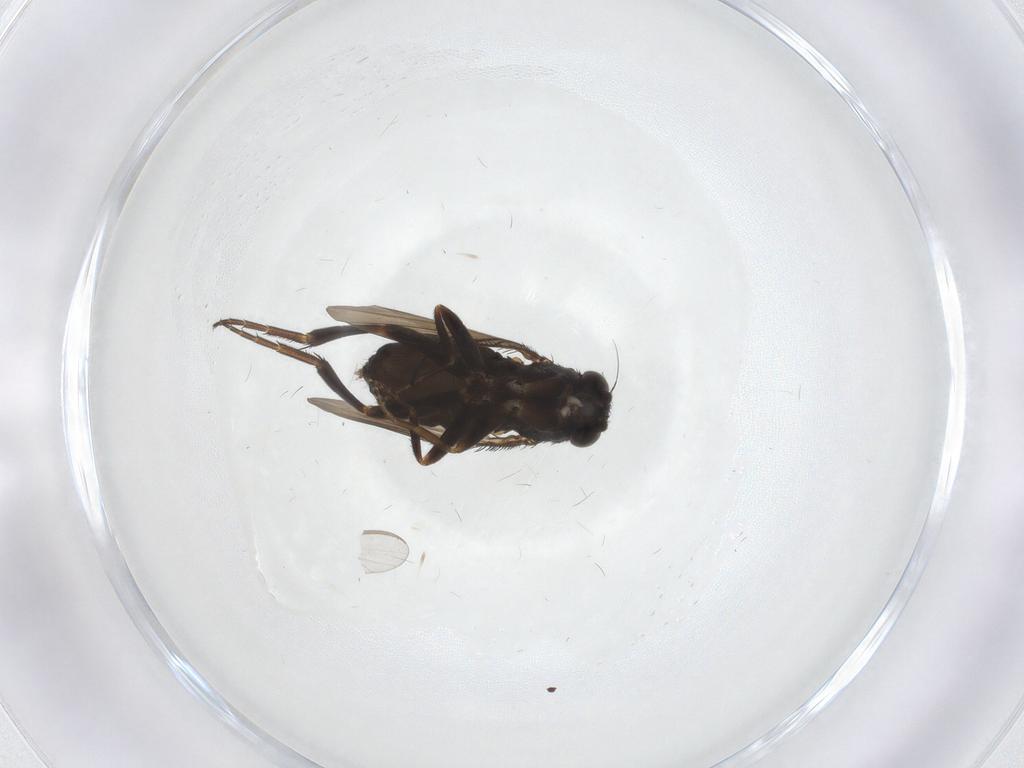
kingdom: Animalia
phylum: Arthropoda
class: Insecta
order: Diptera
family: Phoridae
